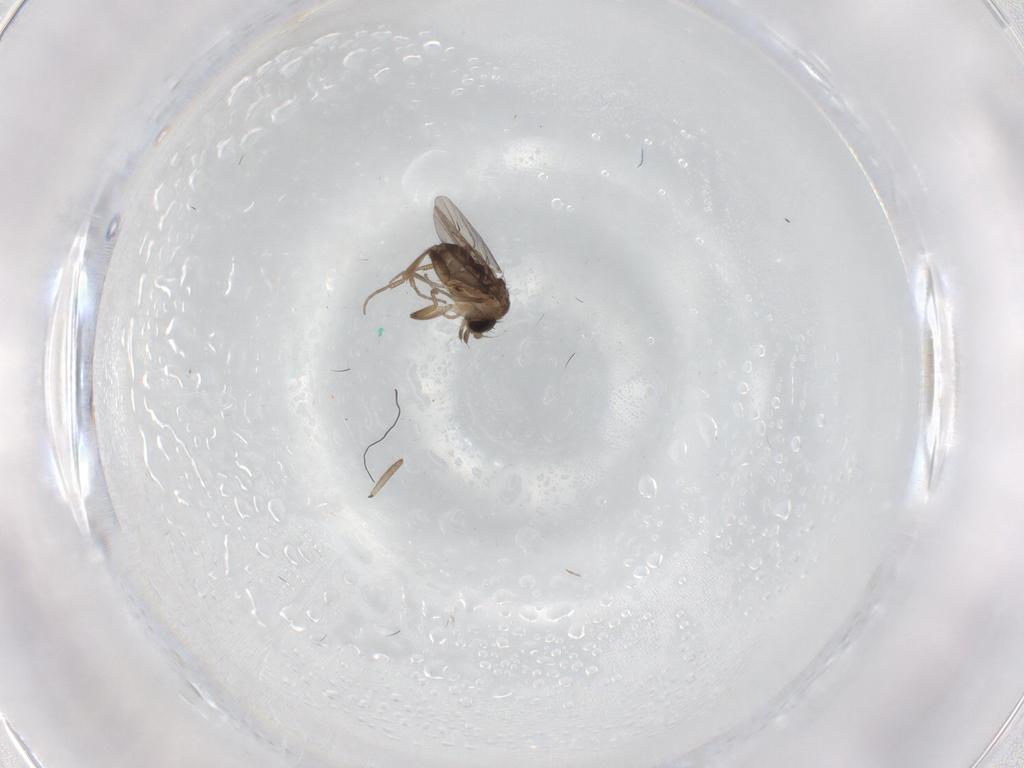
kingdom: Animalia
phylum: Arthropoda
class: Insecta
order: Diptera
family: Phoridae
